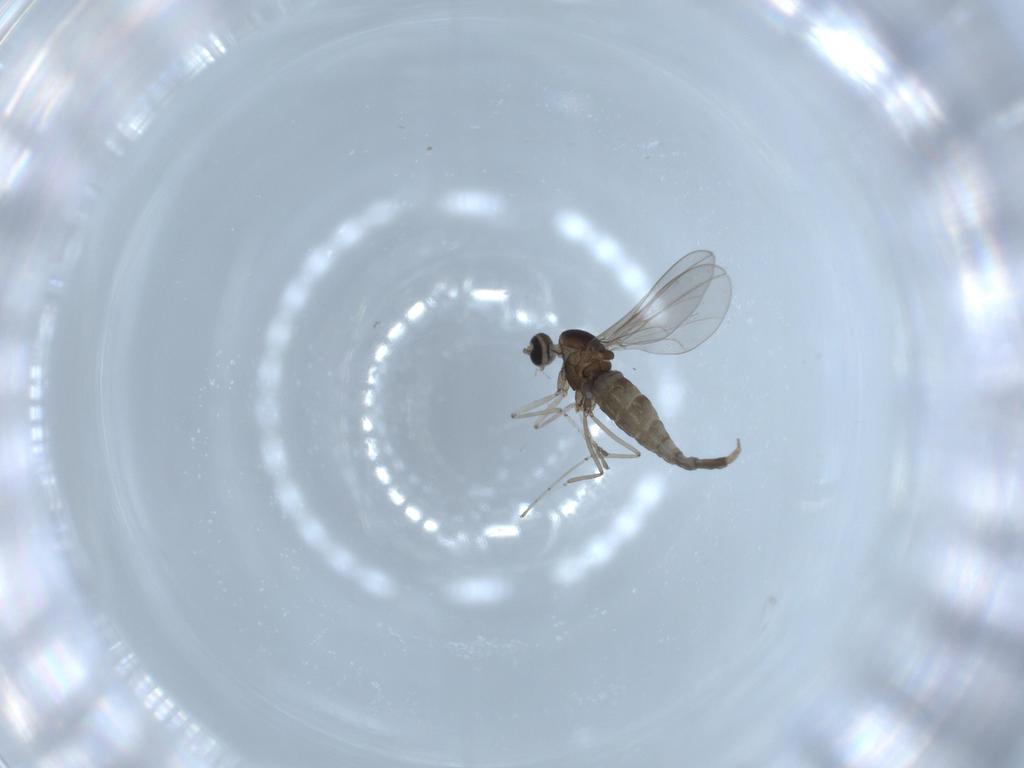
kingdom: Animalia
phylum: Arthropoda
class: Insecta
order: Diptera
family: Cecidomyiidae
